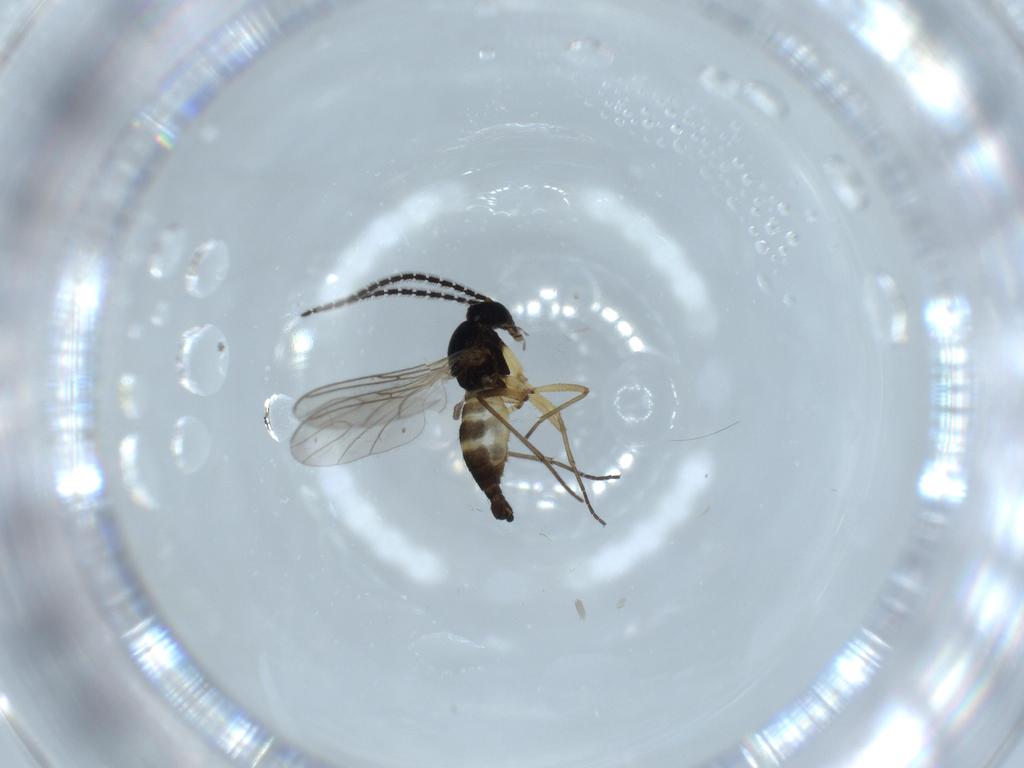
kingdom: Animalia
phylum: Arthropoda
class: Insecta
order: Diptera
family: Sciaridae
